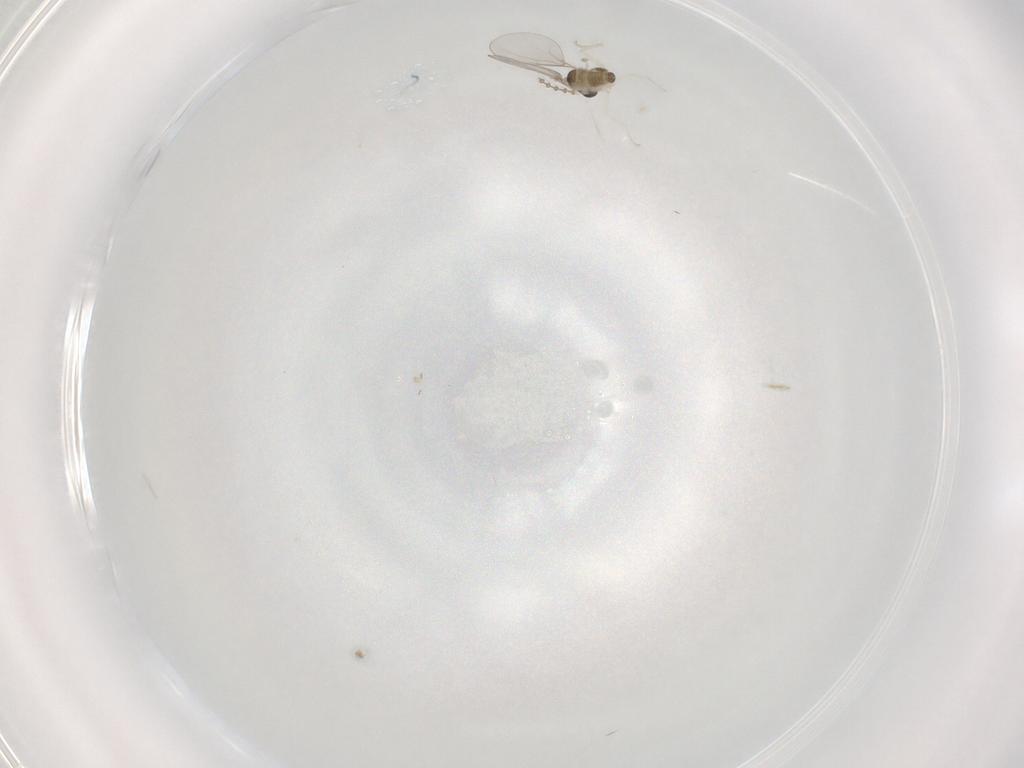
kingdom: Animalia
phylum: Arthropoda
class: Insecta
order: Diptera
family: Cecidomyiidae
